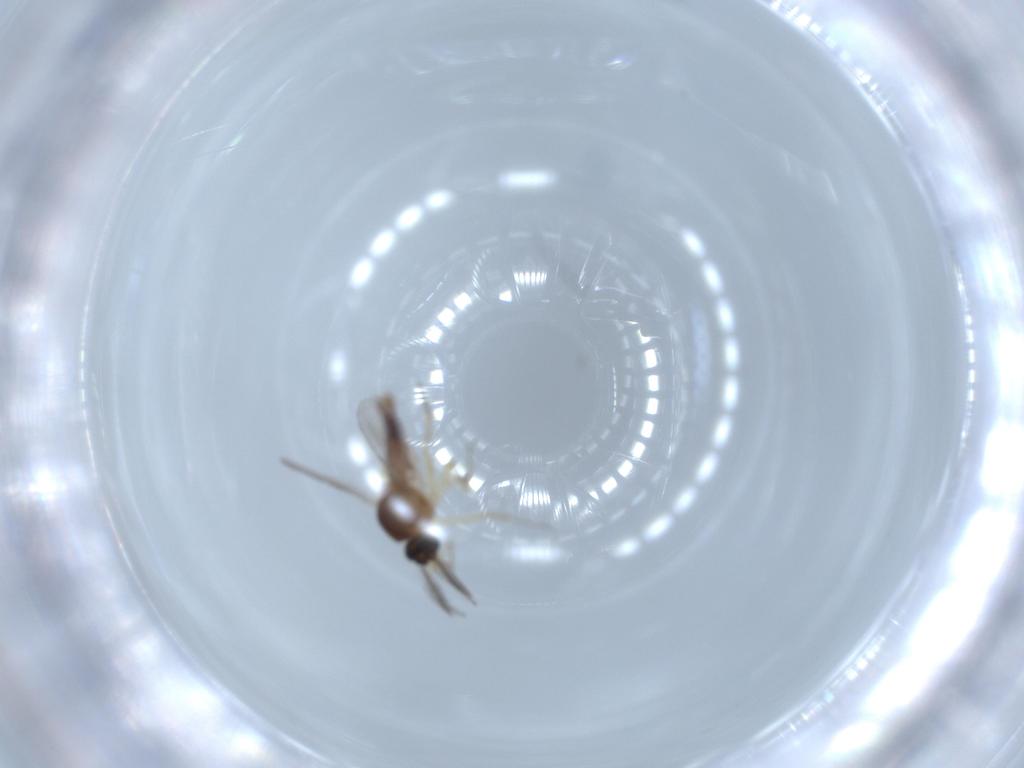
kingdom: Animalia
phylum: Arthropoda
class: Insecta
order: Diptera
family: Ceratopogonidae
